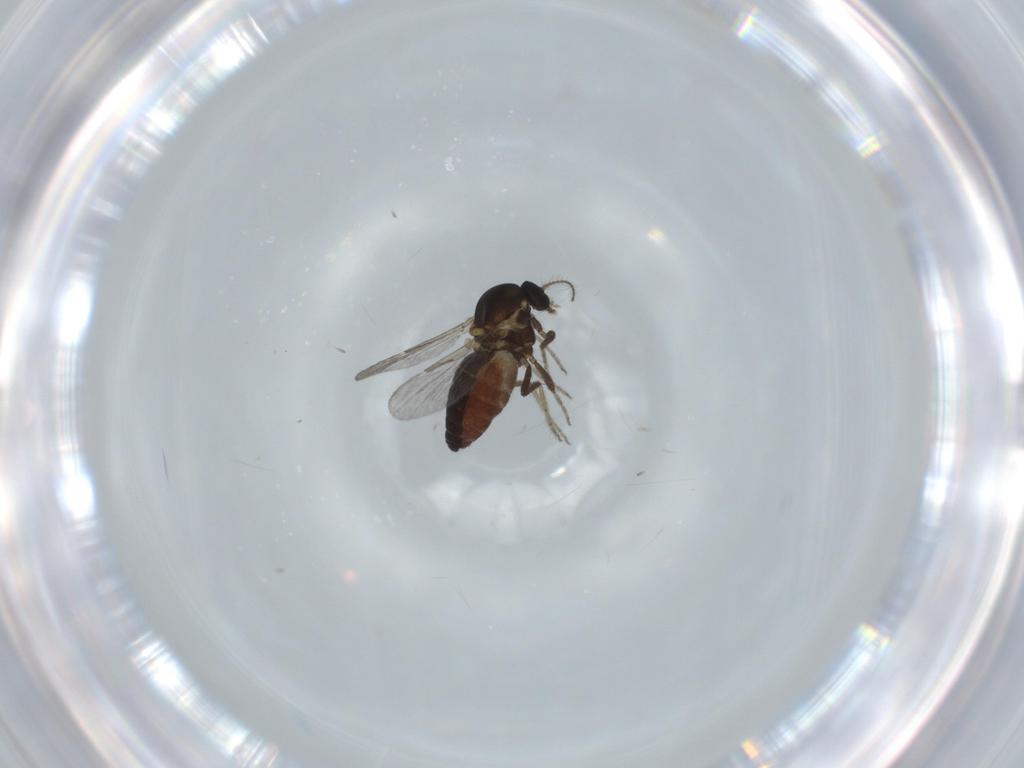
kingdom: Animalia
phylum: Arthropoda
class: Insecta
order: Diptera
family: Ceratopogonidae
